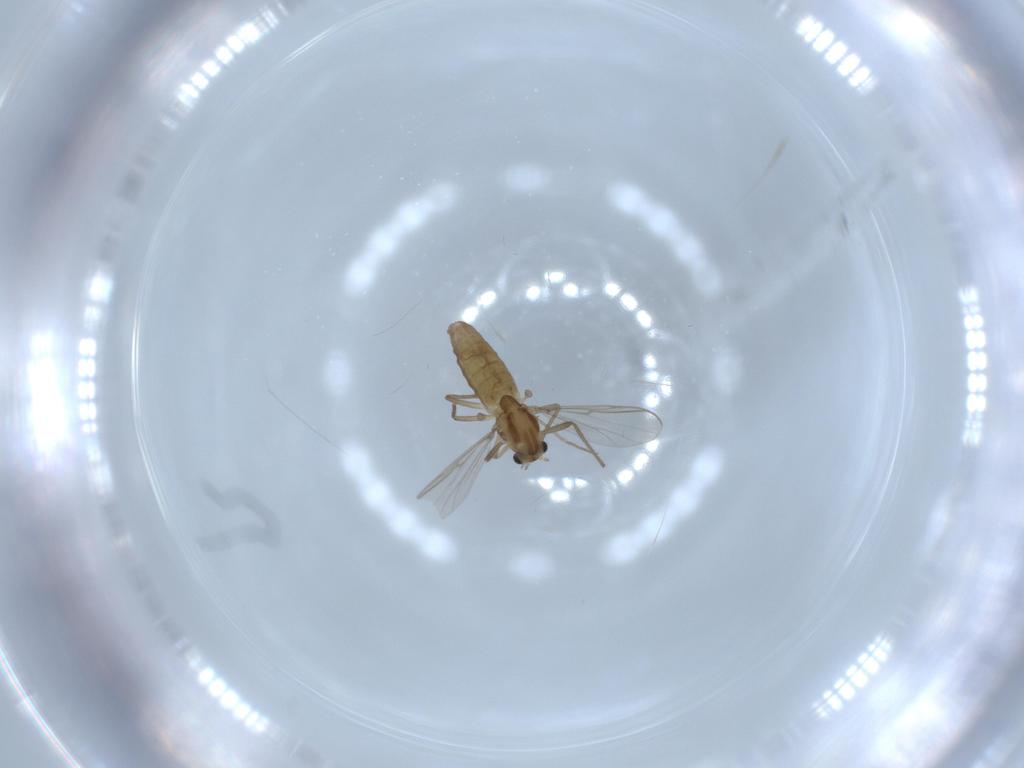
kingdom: Animalia
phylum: Arthropoda
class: Insecta
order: Diptera
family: Chironomidae
